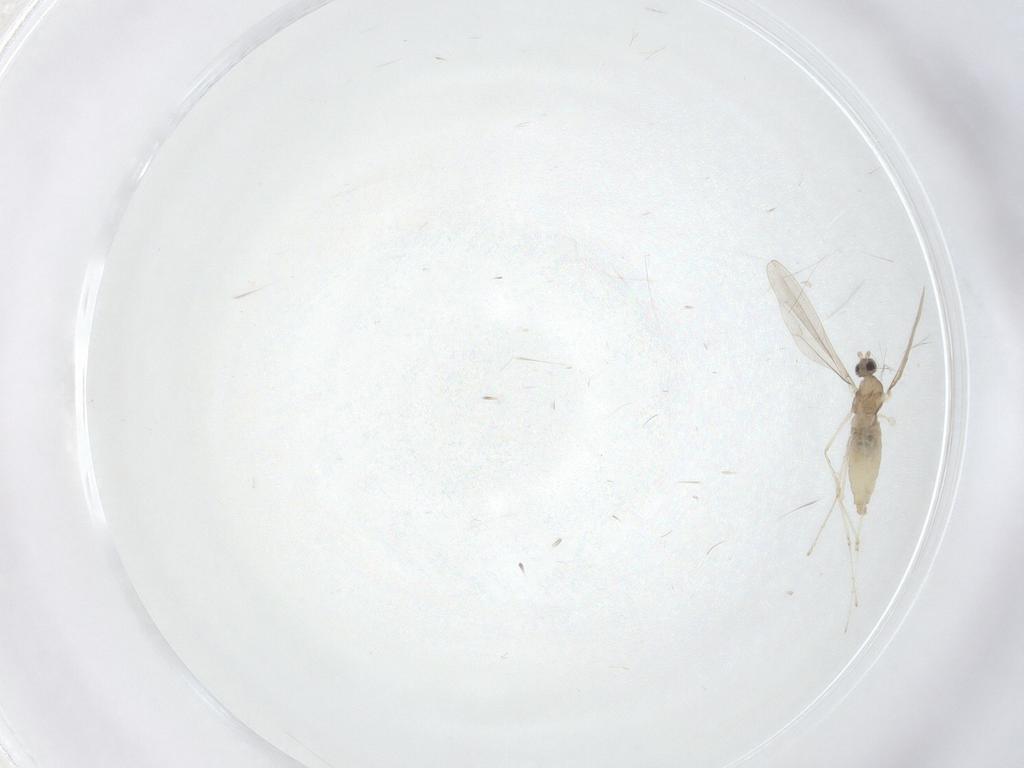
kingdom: Animalia
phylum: Arthropoda
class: Insecta
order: Diptera
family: Cecidomyiidae
